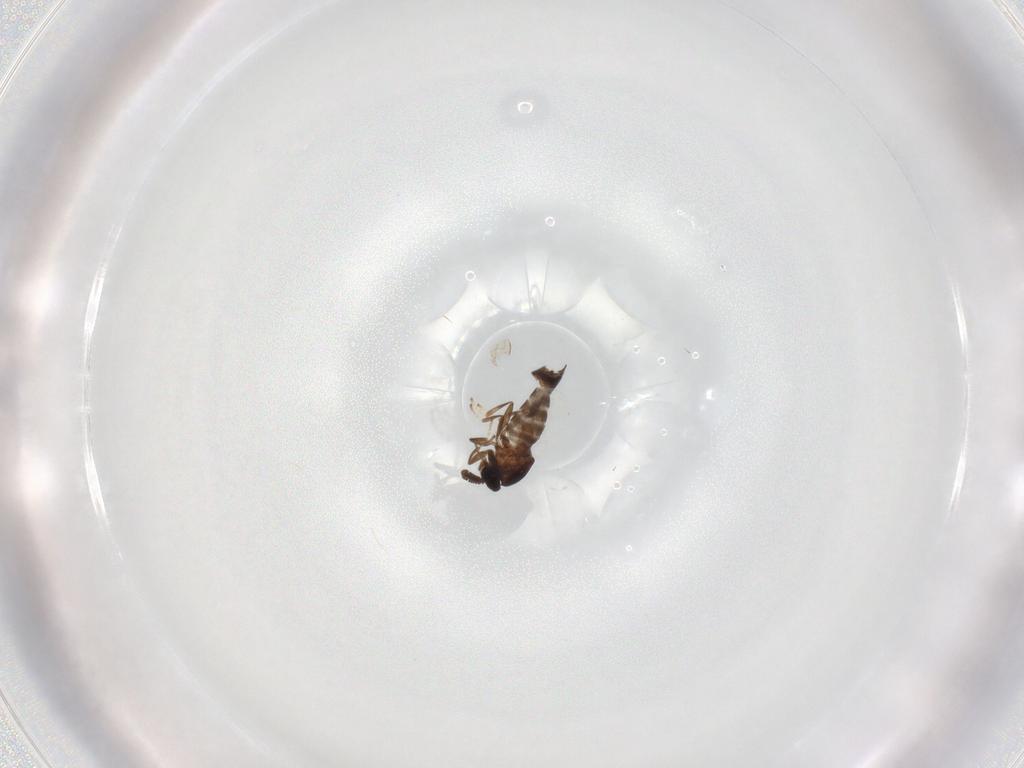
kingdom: Animalia
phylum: Arthropoda
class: Insecta
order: Diptera
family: Scatopsidae
